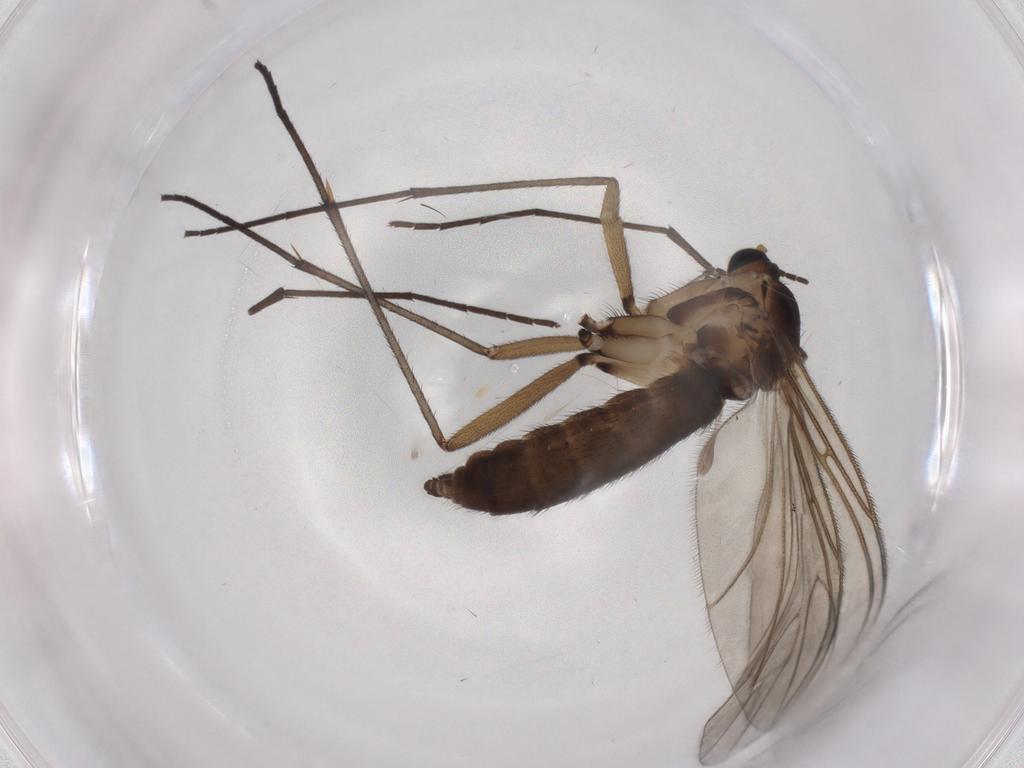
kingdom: Animalia
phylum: Arthropoda
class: Insecta
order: Diptera
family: Sciaridae
